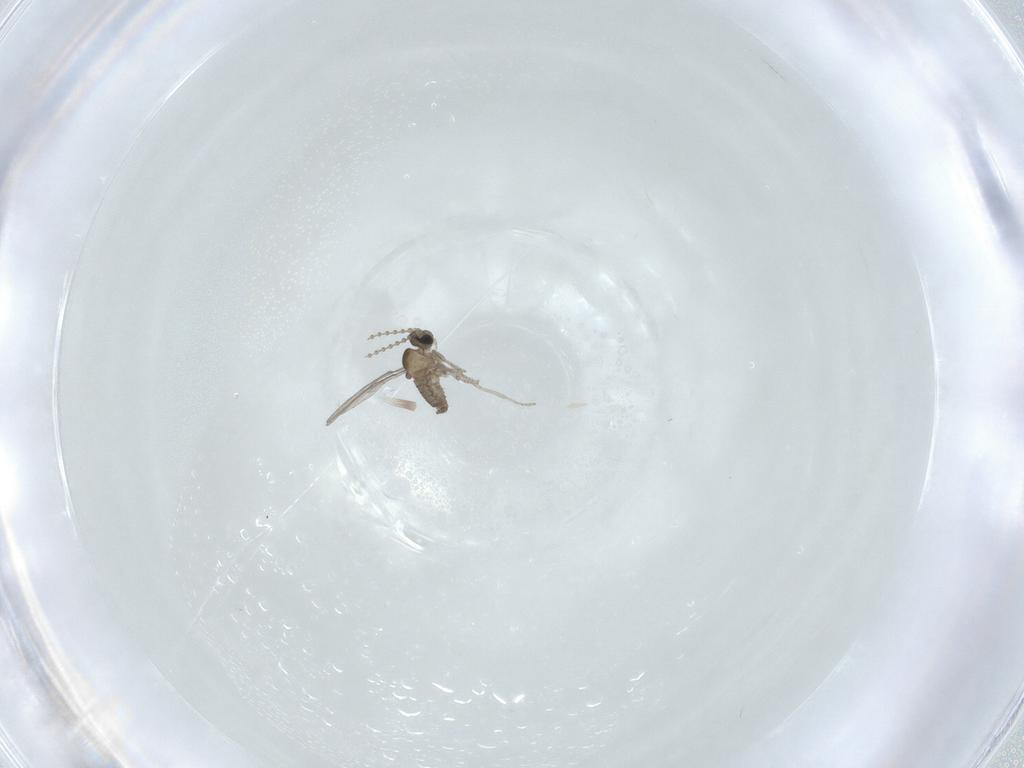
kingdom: Animalia
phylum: Arthropoda
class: Insecta
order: Diptera
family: Cecidomyiidae
